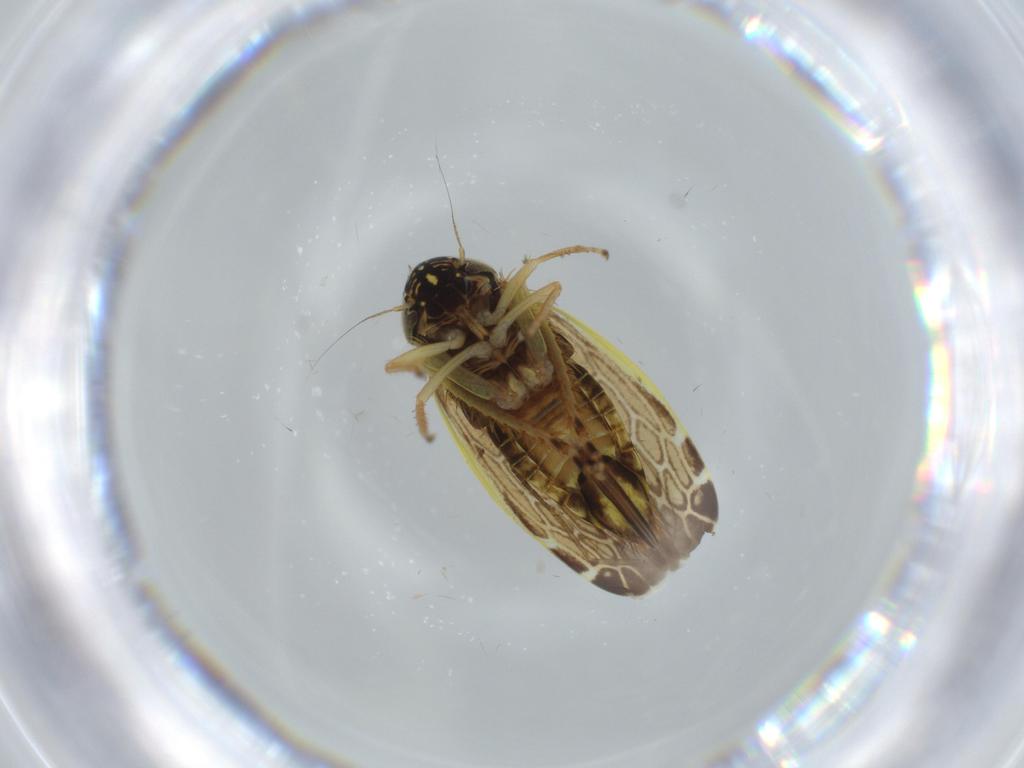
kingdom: Animalia
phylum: Arthropoda
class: Insecta
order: Hemiptera
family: Cicadellidae
